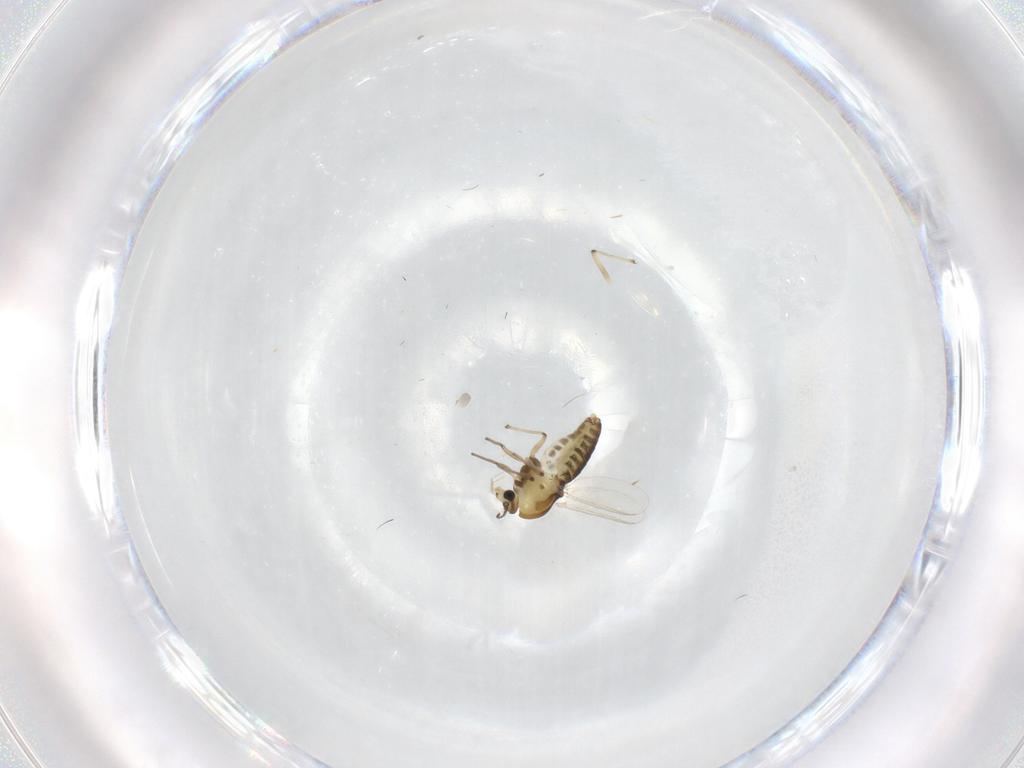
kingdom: Animalia
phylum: Arthropoda
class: Insecta
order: Diptera
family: Chironomidae
